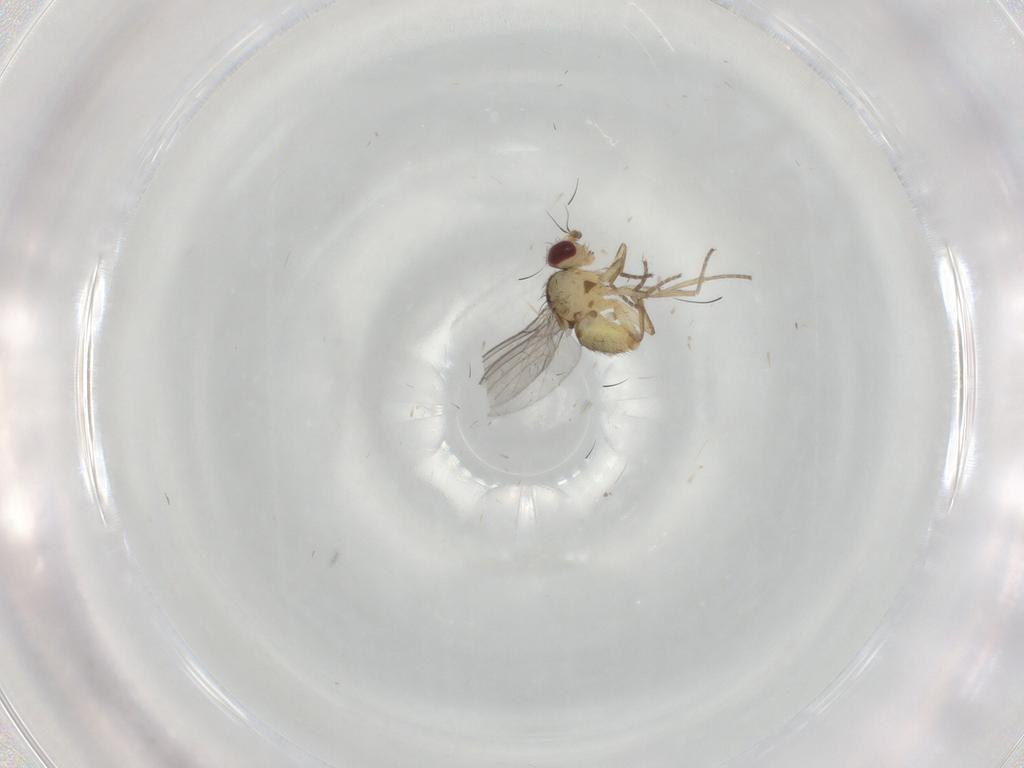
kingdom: Animalia
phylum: Arthropoda
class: Insecta
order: Diptera
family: Agromyzidae
